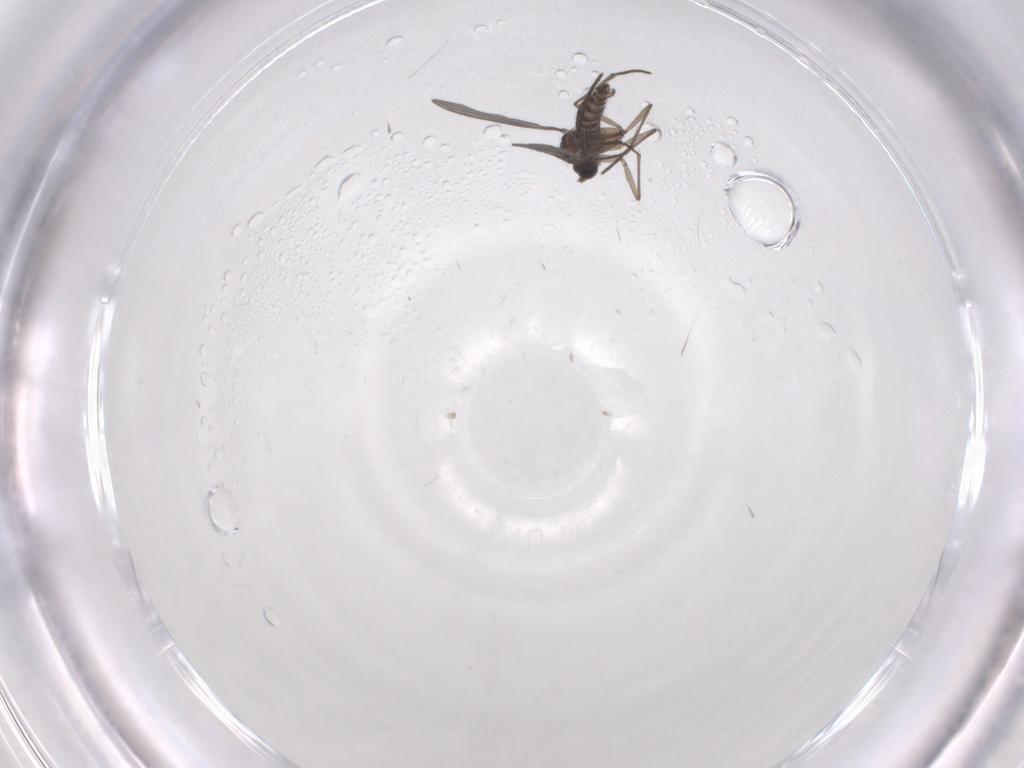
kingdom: Animalia
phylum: Arthropoda
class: Insecta
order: Diptera
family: Sciaridae
